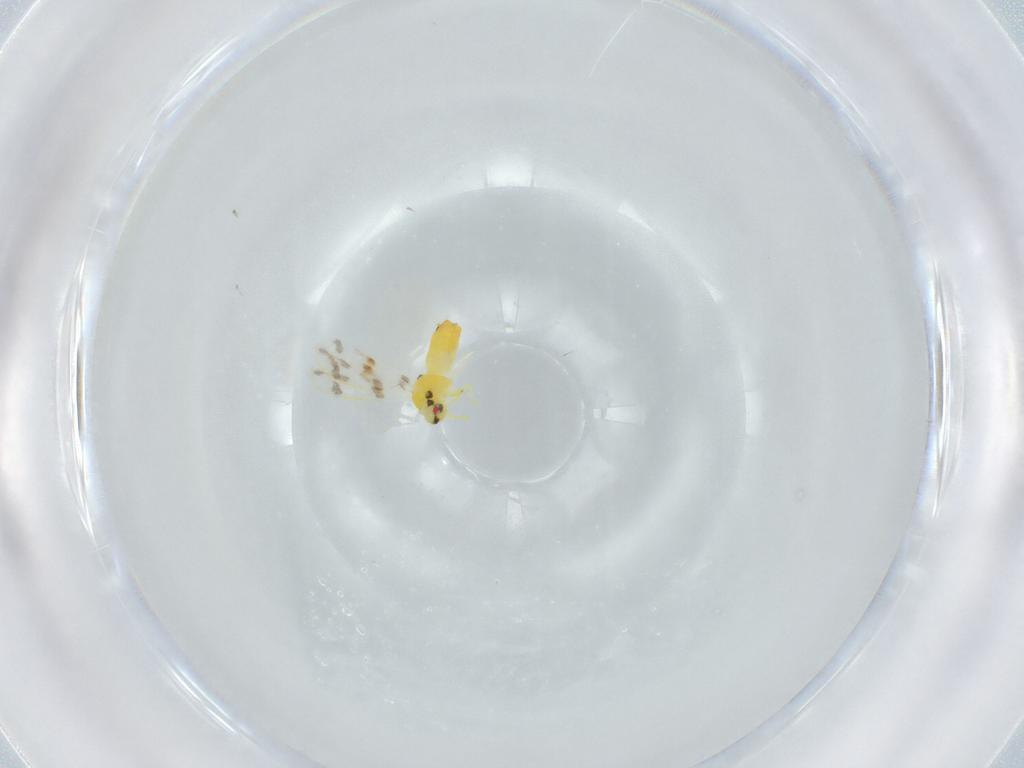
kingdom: Animalia
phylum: Arthropoda
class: Insecta
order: Hemiptera
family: Aleyrodidae
